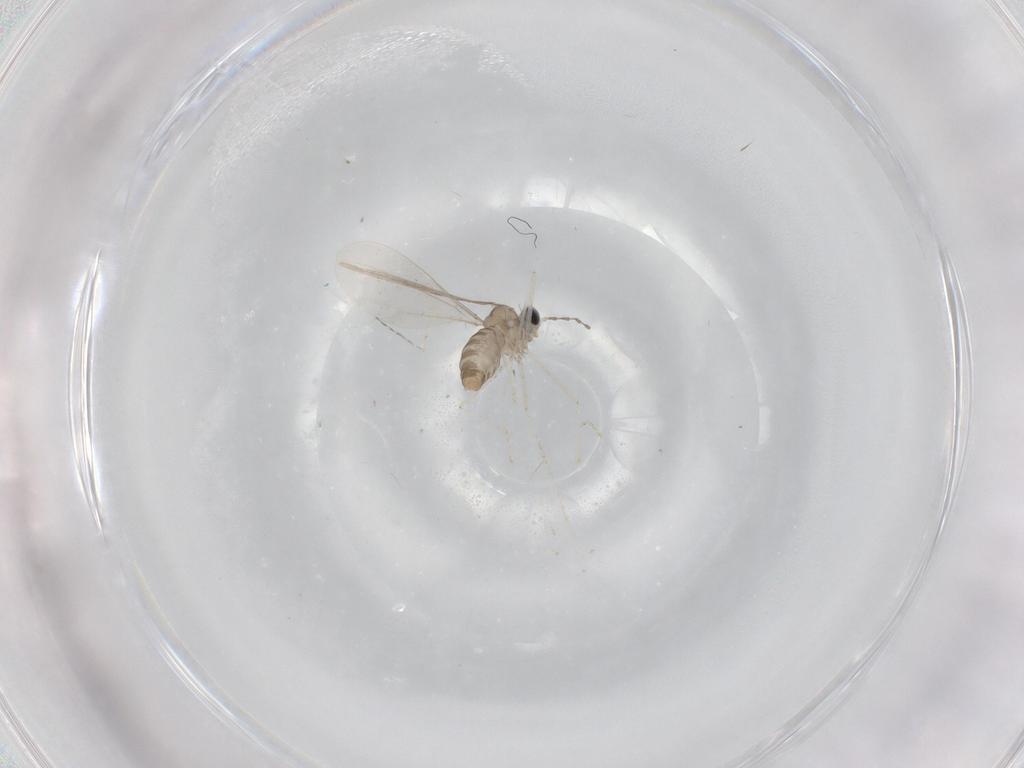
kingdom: Animalia
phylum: Arthropoda
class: Insecta
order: Diptera
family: Cecidomyiidae
